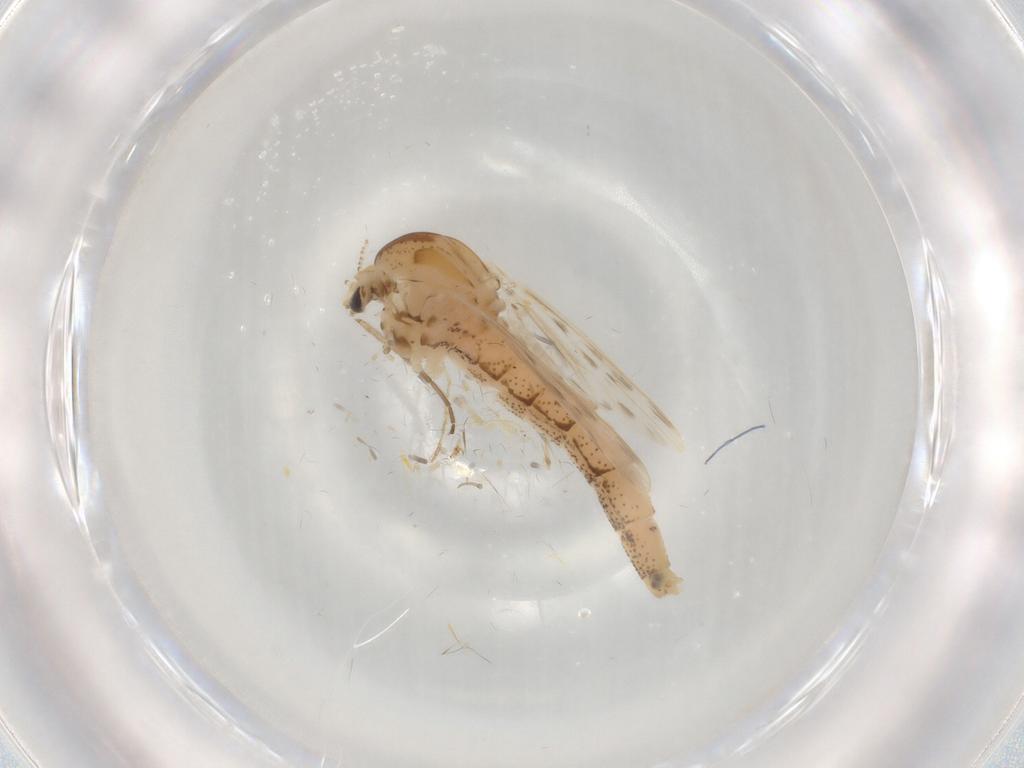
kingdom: Animalia
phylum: Arthropoda
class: Insecta
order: Diptera
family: Chaoboridae
